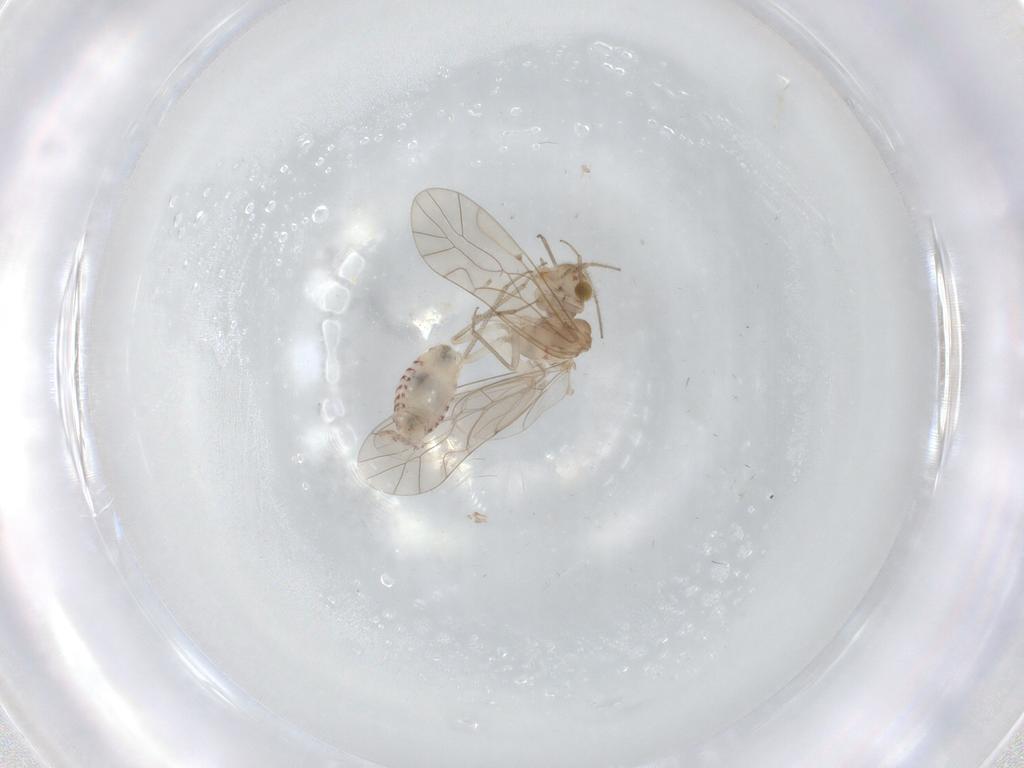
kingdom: Animalia
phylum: Arthropoda
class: Insecta
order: Psocodea
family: Lachesillidae
